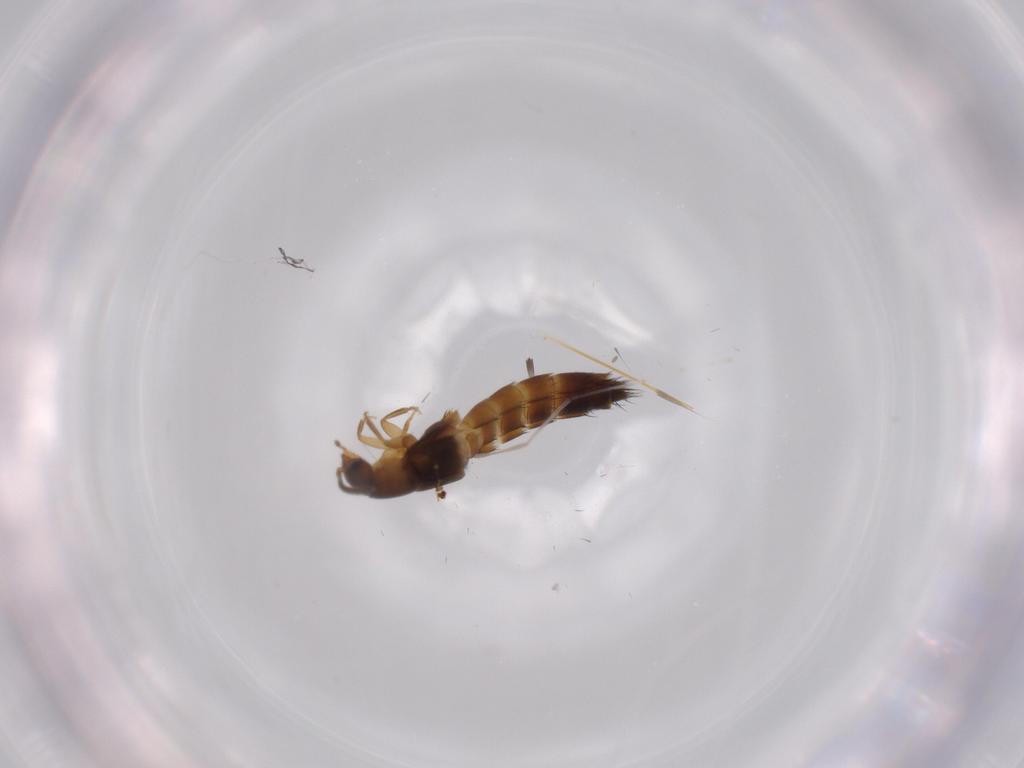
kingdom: Animalia
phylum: Arthropoda
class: Insecta
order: Coleoptera
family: Staphylinidae
